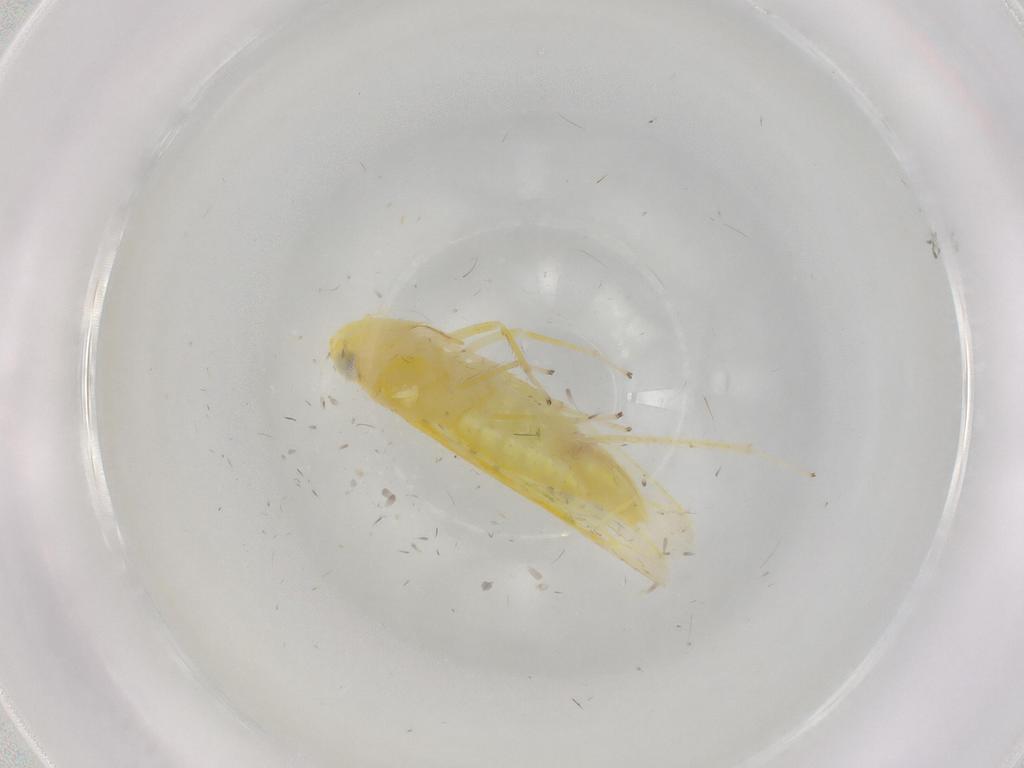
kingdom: Animalia
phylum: Arthropoda
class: Insecta
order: Hemiptera
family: Cicadellidae
